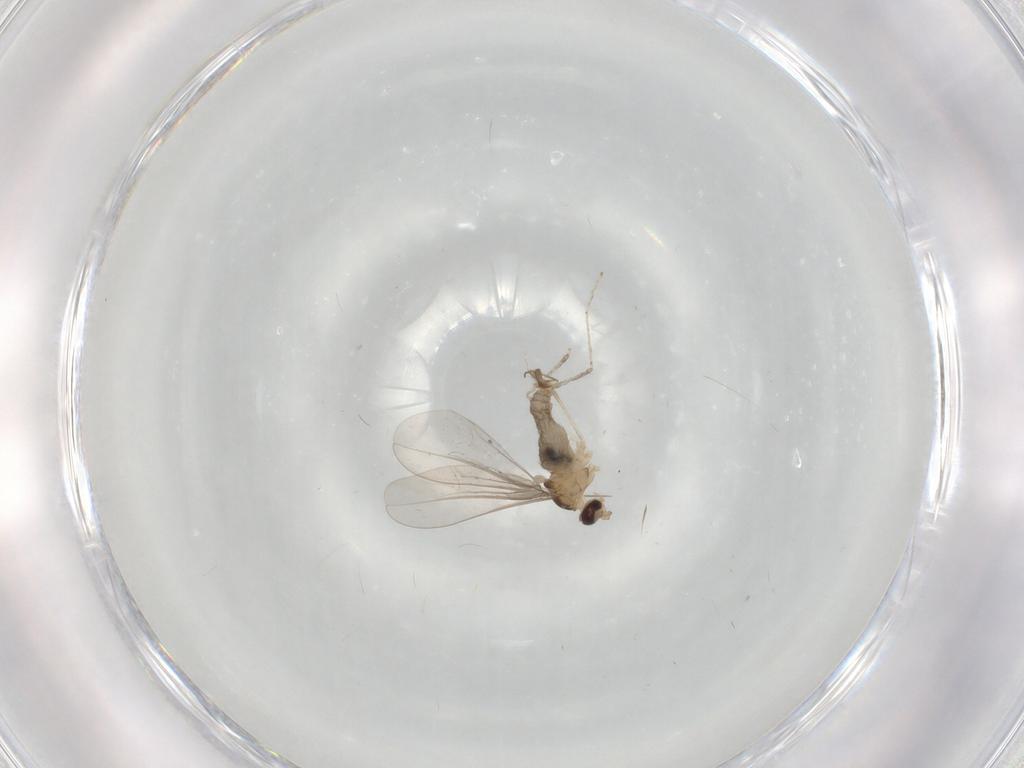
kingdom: Animalia
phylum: Arthropoda
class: Insecta
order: Diptera
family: Cecidomyiidae
